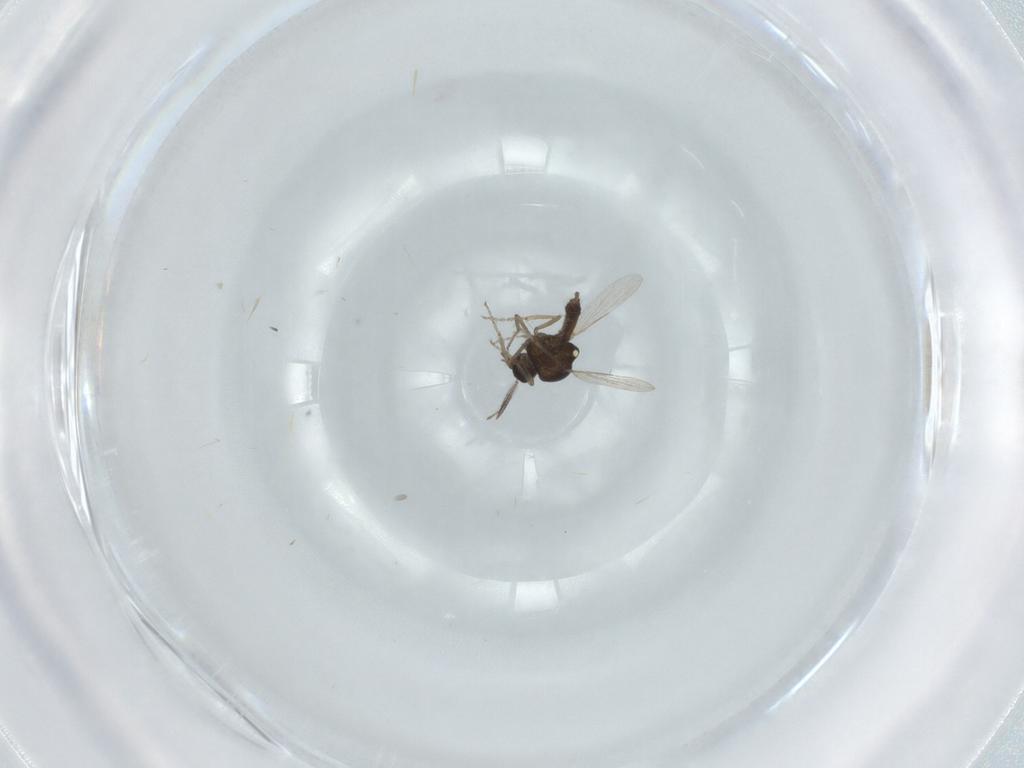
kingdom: Animalia
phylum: Arthropoda
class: Insecta
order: Diptera
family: Ceratopogonidae
